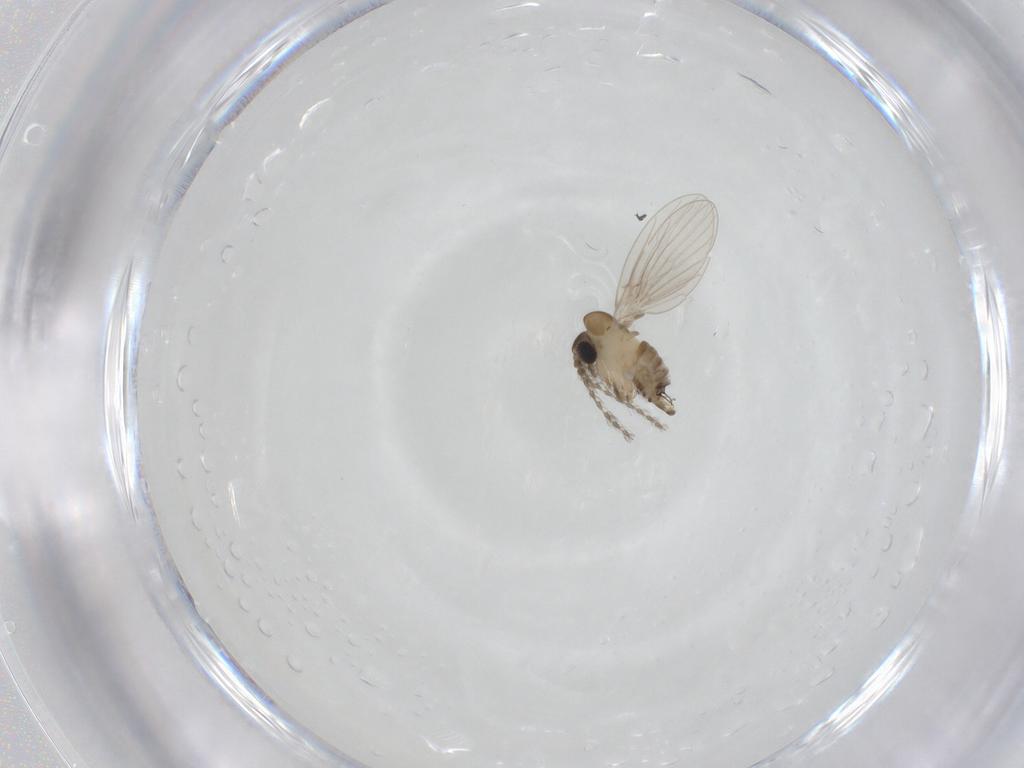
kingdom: Animalia
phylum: Arthropoda
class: Insecta
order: Diptera
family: Psychodidae
